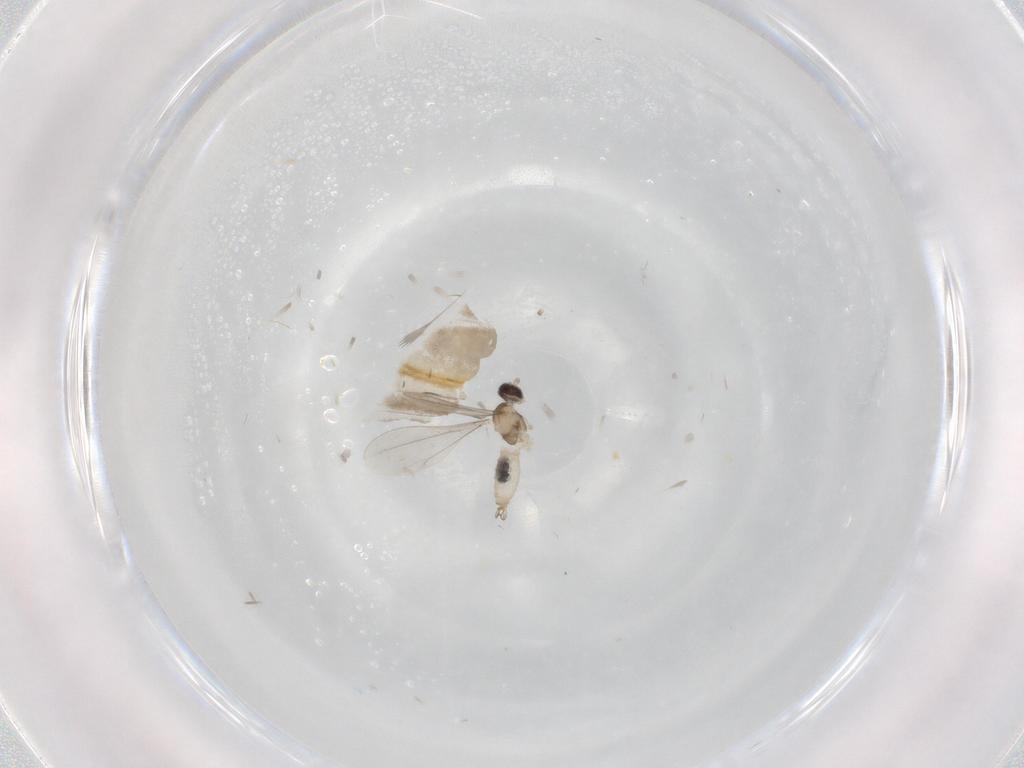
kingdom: Animalia
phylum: Arthropoda
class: Insecta
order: Diptera
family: Cecidomyiidae
